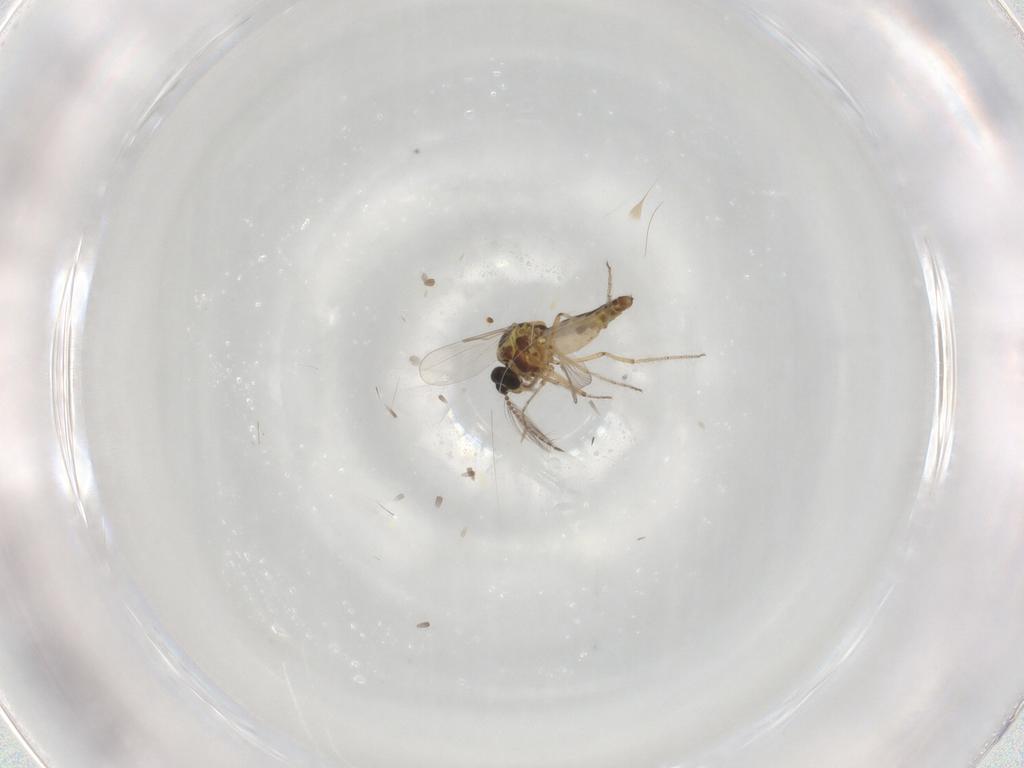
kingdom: Animalia
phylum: Arthropoda
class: Insecta
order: Diptera
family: Ceratopogonidae
